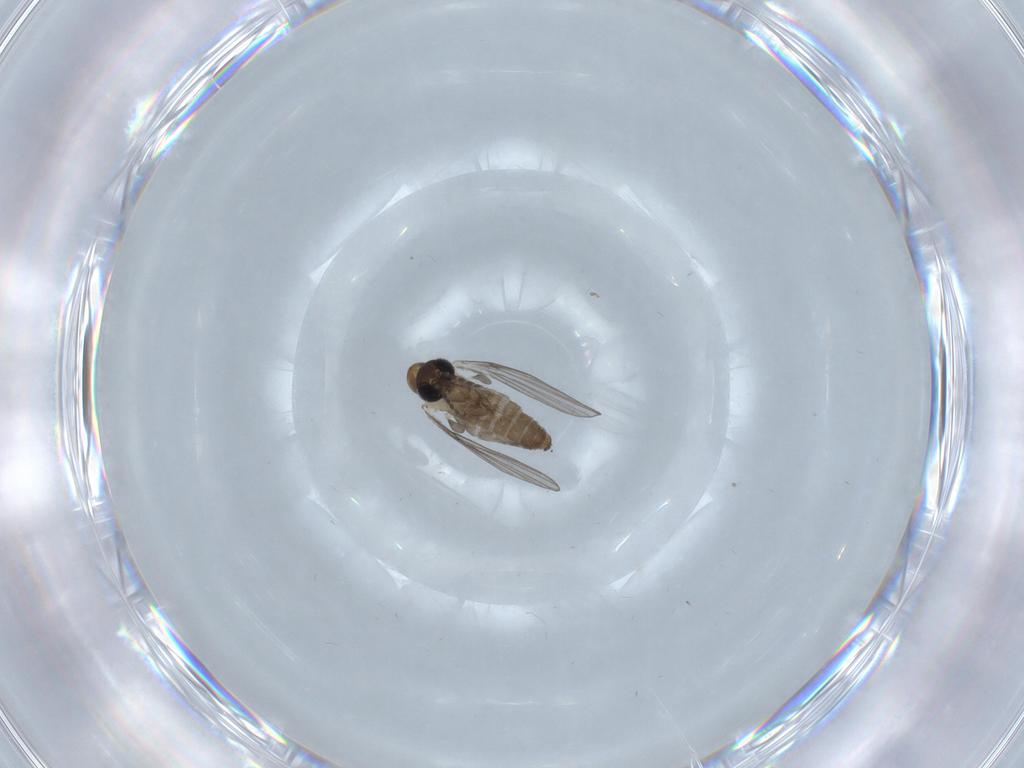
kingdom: Animalia
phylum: Arthropoda
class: Insecta
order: Diptera
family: Psychodidae
